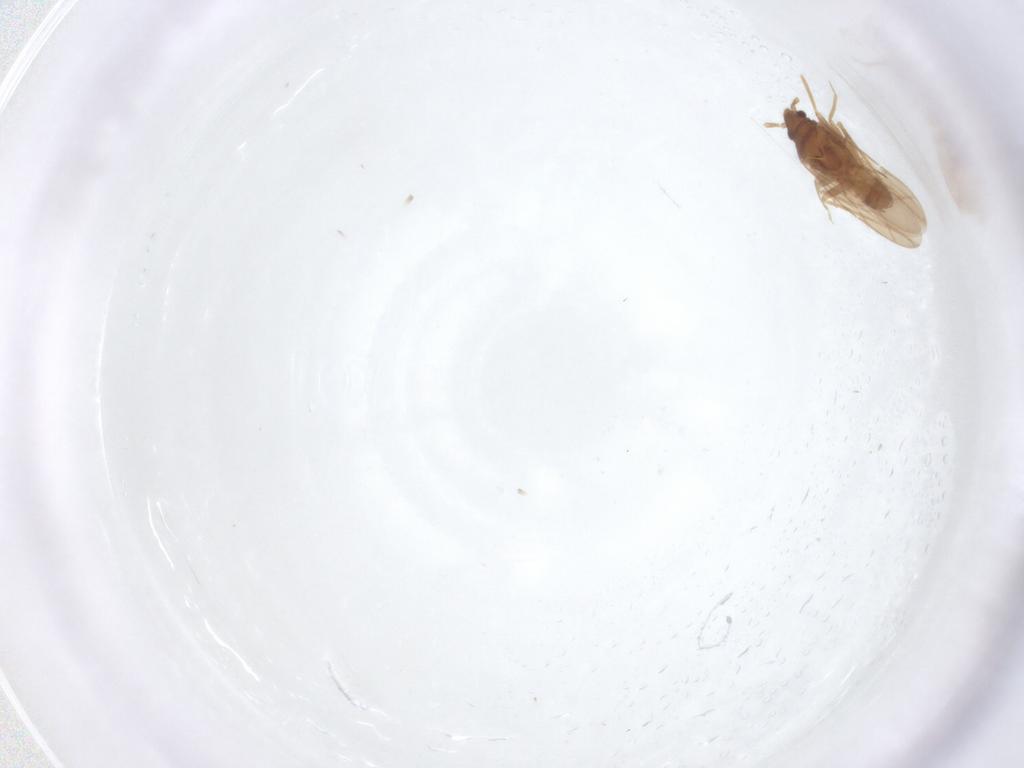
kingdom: Animalia
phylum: Arthropoda
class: Insecta
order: Hemiptera
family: Ceratocombidae
